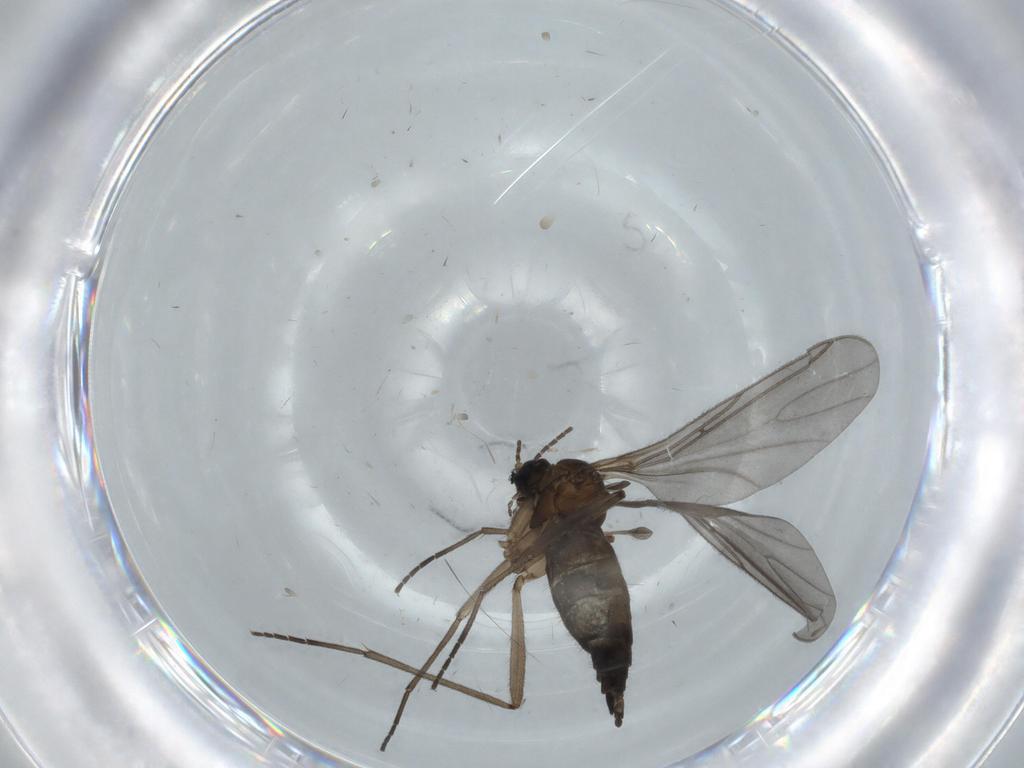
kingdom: Animalia
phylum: Arthropoda
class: Insecta
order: Diptera
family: Sciaridae
